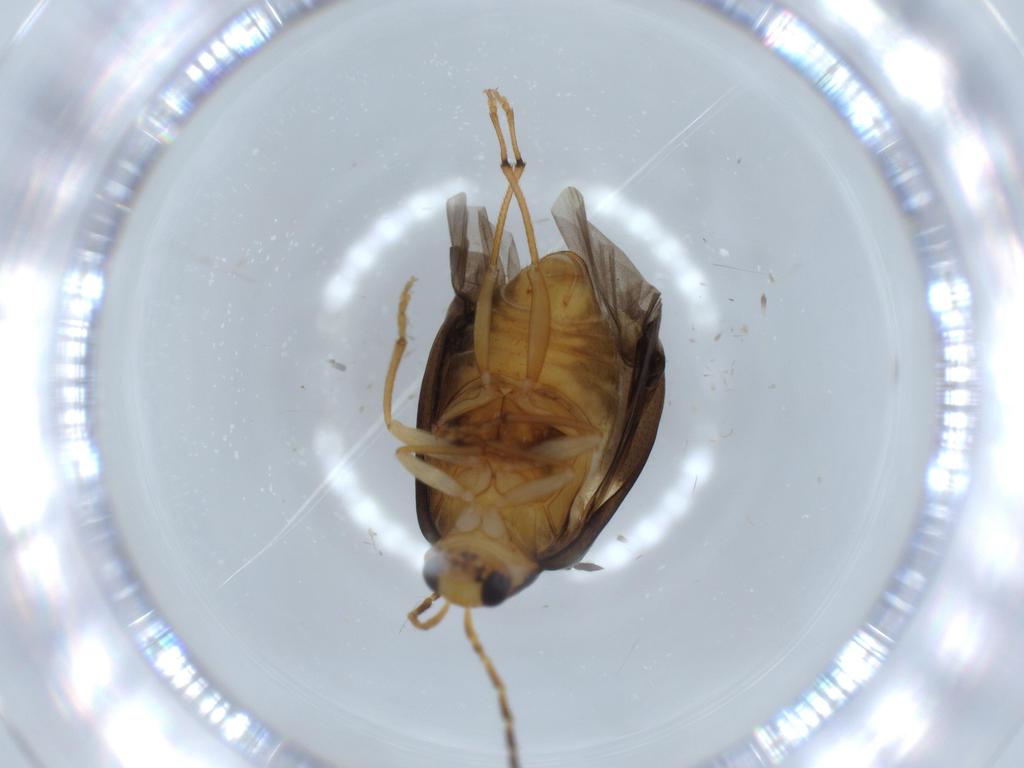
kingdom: Animalia
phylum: Arthropoda
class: Insecta
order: Coleoptera
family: Chrysomelidae
